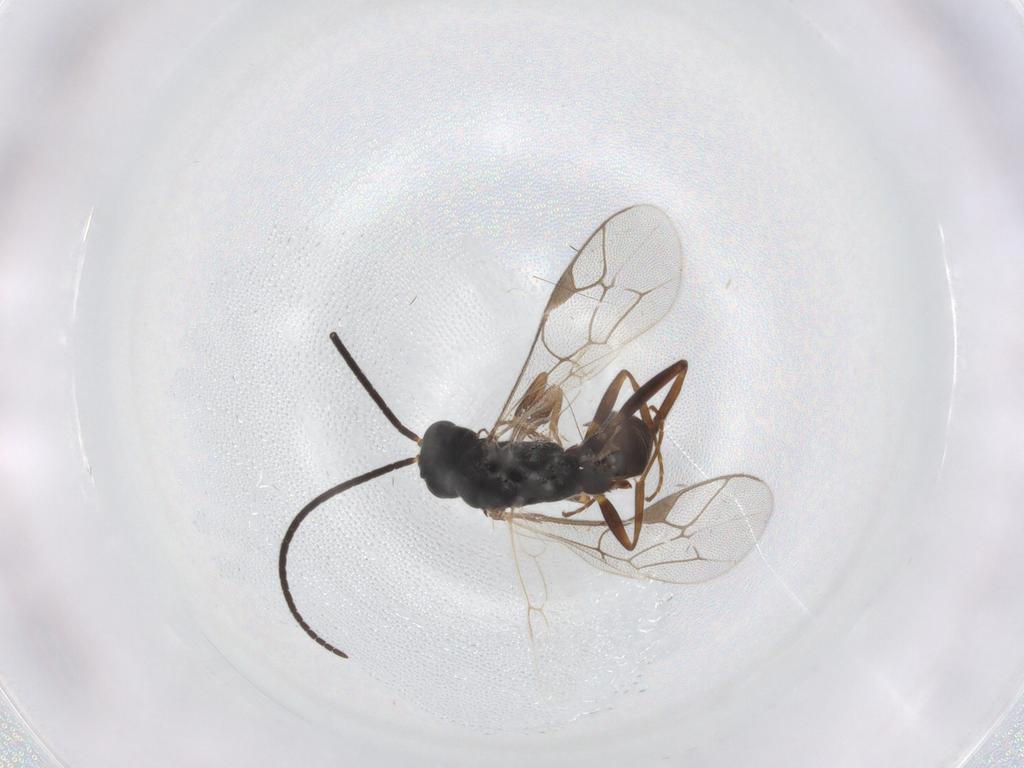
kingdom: Animalia
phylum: Arthropoda
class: Insecta
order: Hymenoptera
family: Ichneumonidae
